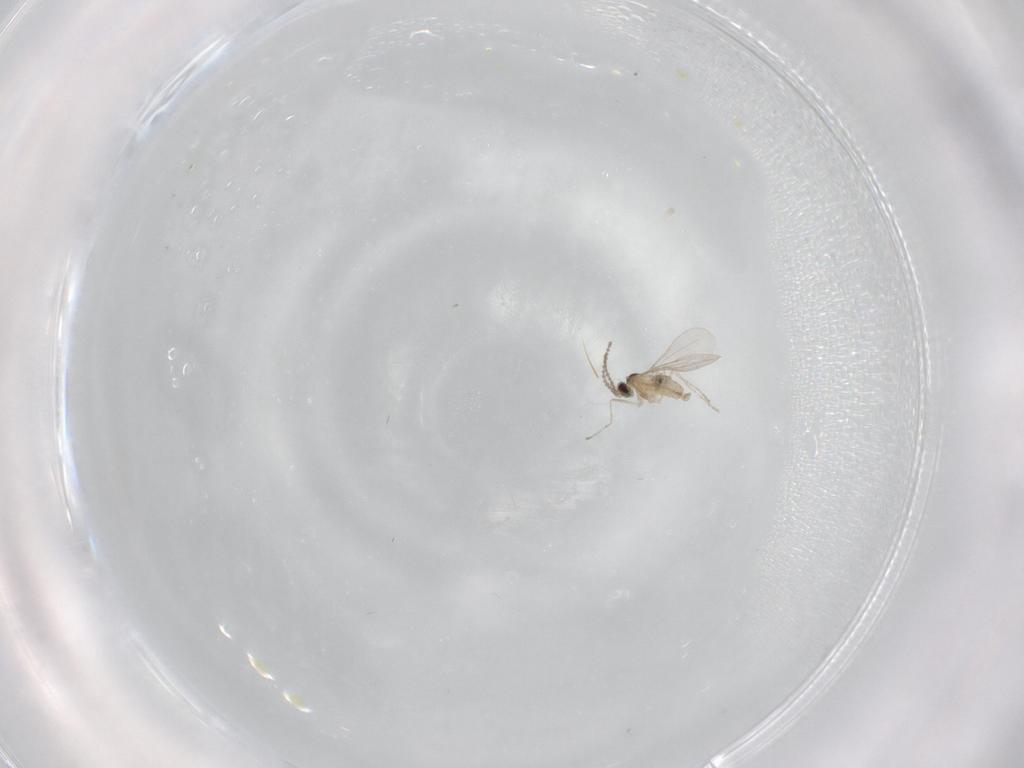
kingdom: Animalia
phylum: Arthropoda
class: Insecta
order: Diptera
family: Cecidomyiidae
